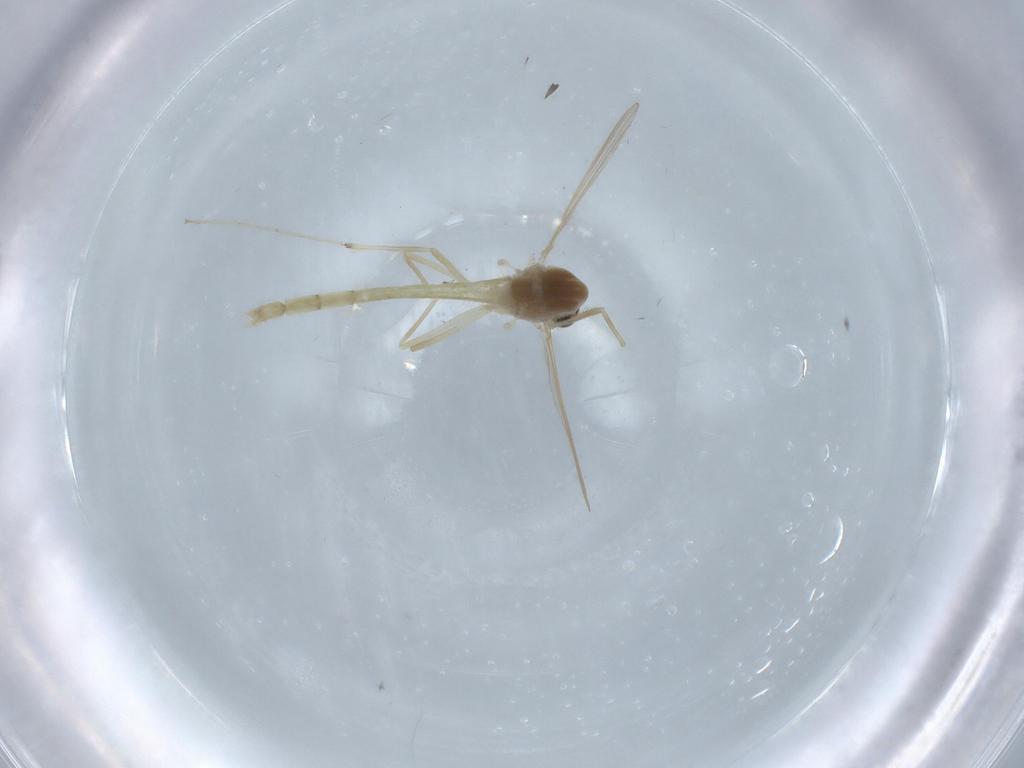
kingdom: Animalia
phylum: Arthropoda
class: Insecta
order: Diptera
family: Chironomidae
